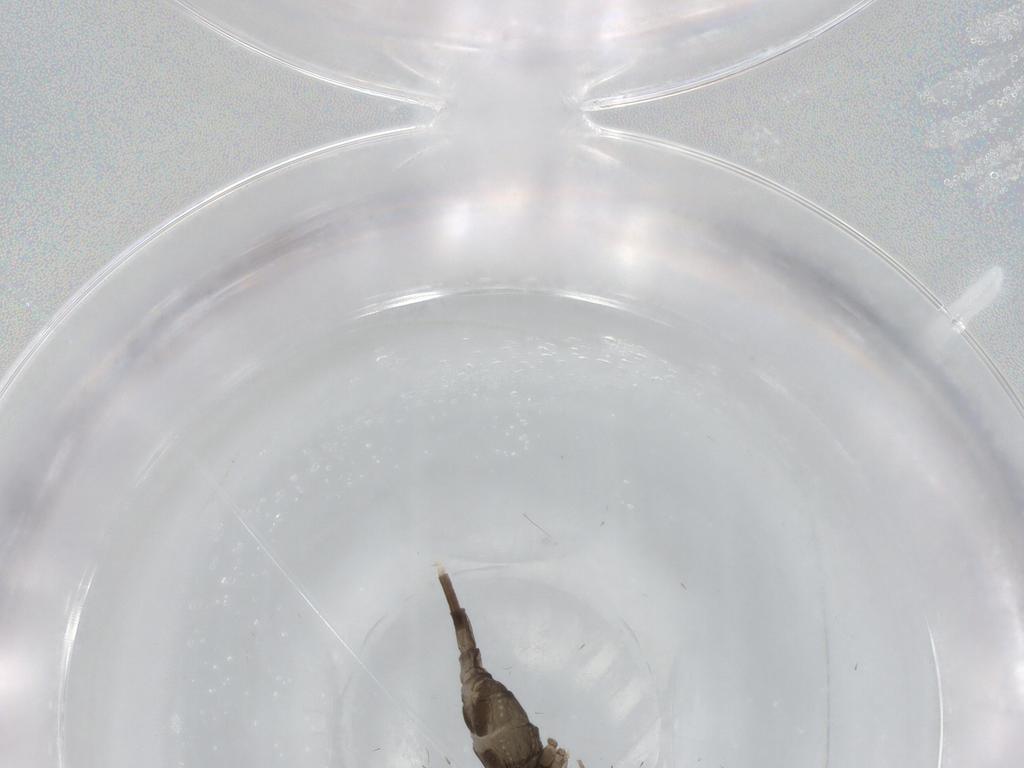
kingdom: Animalia
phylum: Arthropoda
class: Insecta
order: Diptera
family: Cecidomyiidae
